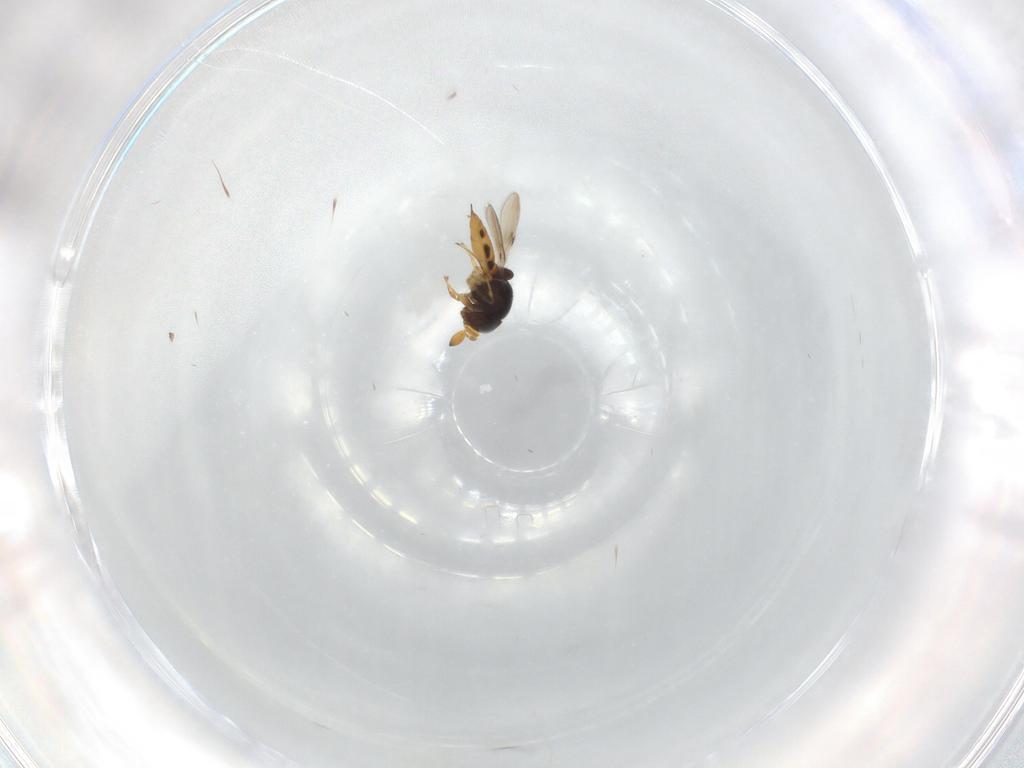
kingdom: Animalia
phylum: Arthropoda
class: Insecta
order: Hymenoptera
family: Scelionidae
